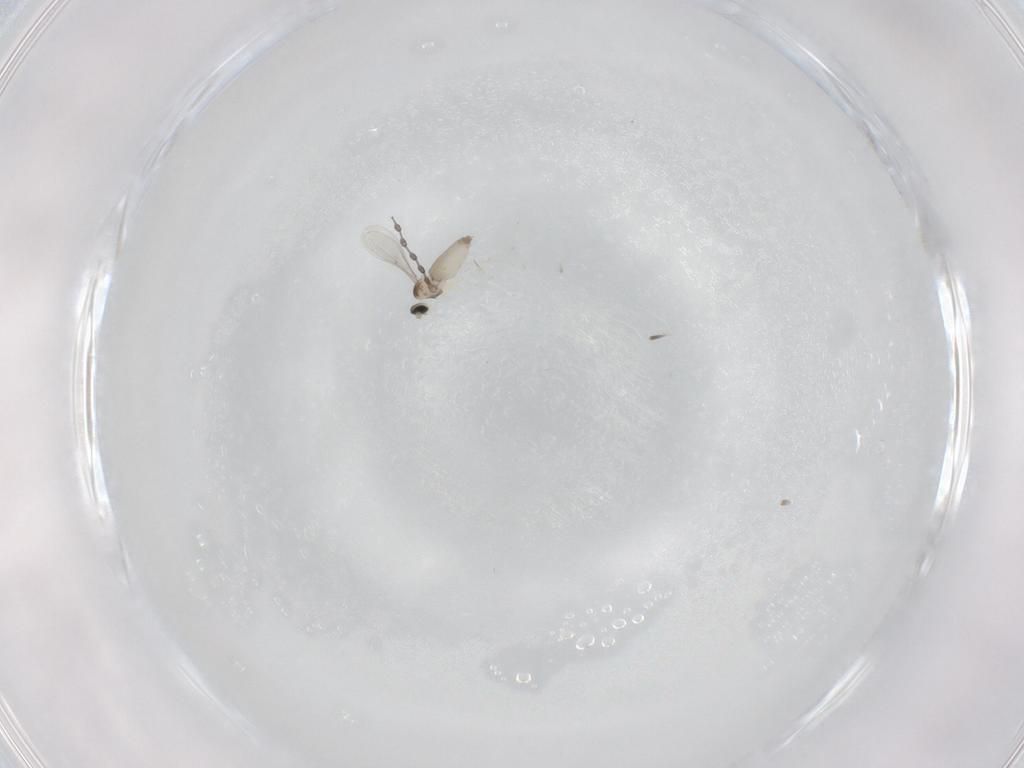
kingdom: Animalia
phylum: Arthropoda
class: Insecta
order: Diptera
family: Cecidomyiidae
